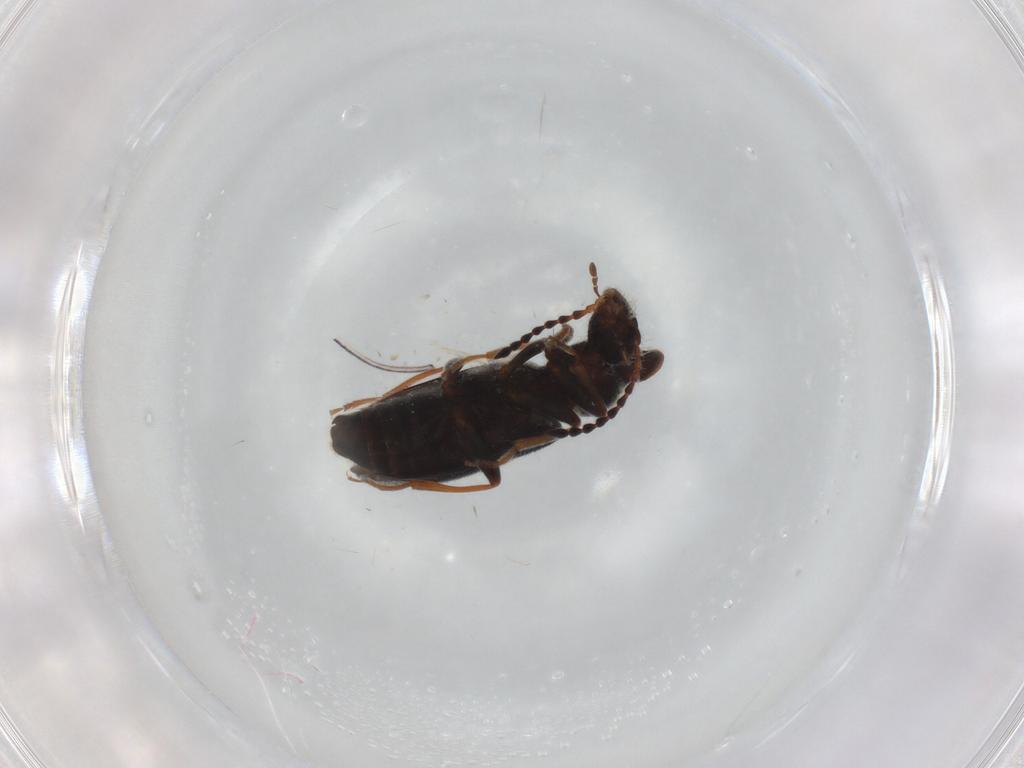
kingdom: Animalia
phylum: Arthropoda
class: Insecta
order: Coleoptera
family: Anthicidae
